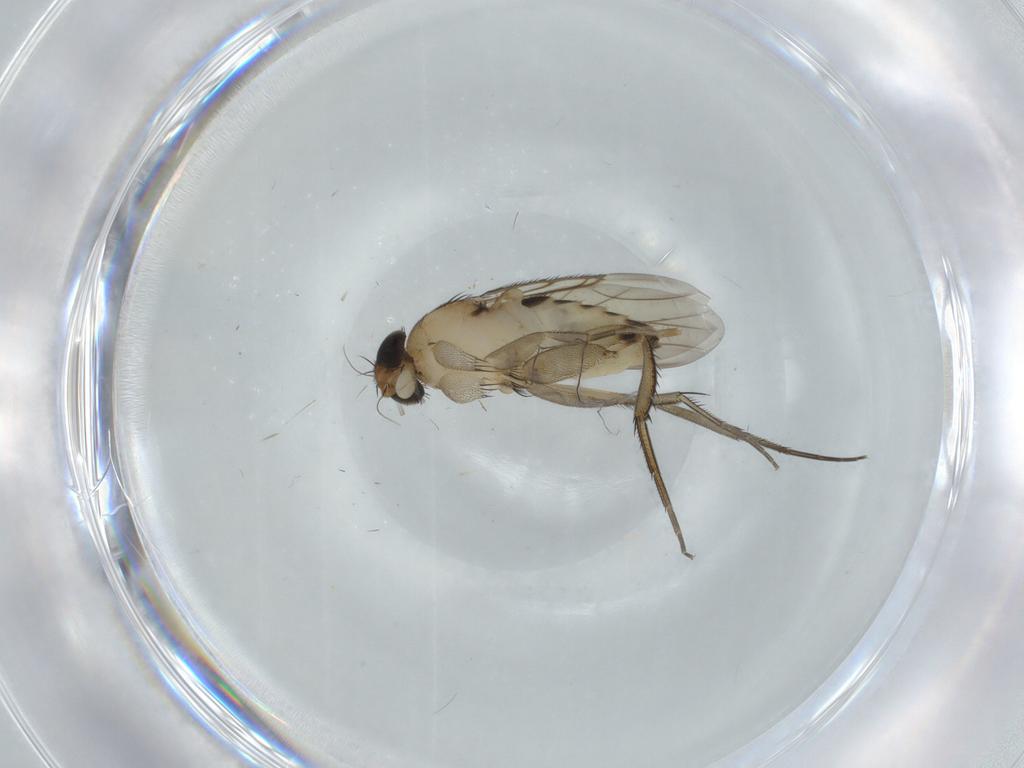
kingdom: Animalia
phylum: Arthropoda
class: Insecta
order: Diptera
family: Phoridae
